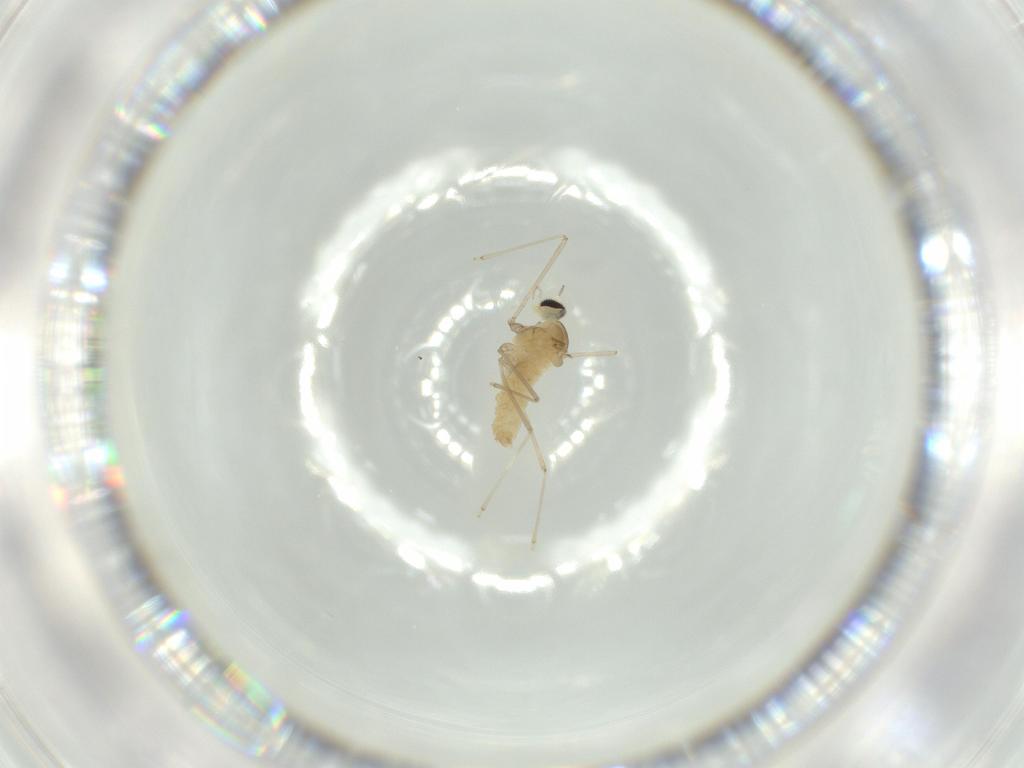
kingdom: Animalia
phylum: Arthropoda
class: Insecta
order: Diptera
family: Cecidomyiidae
